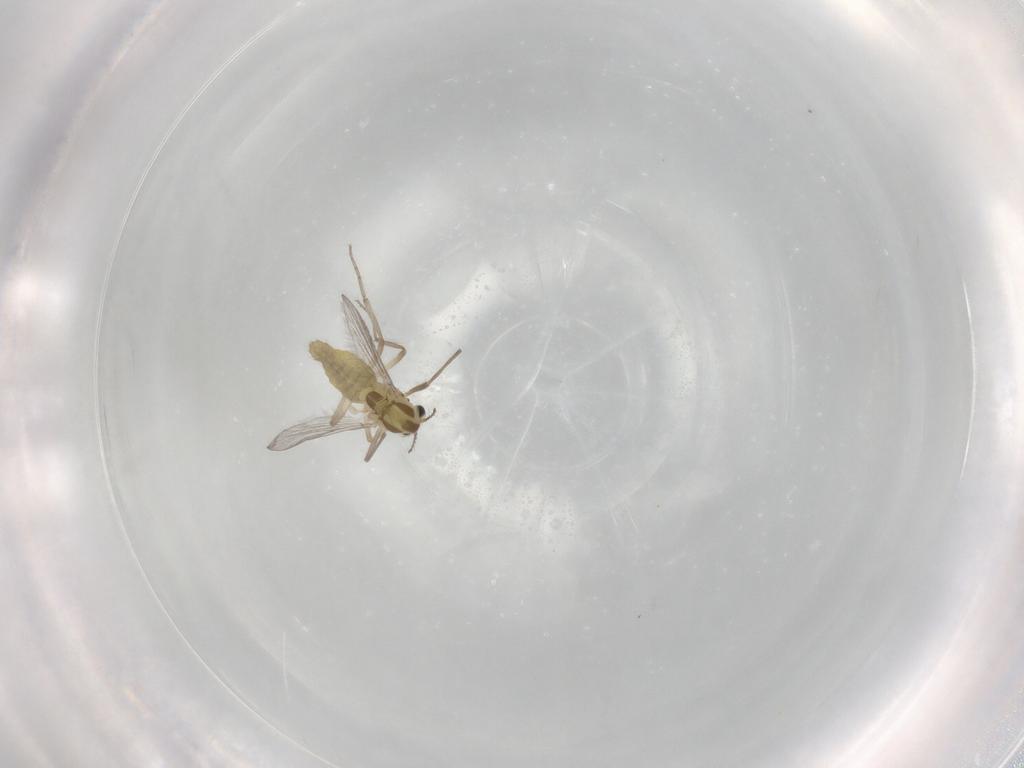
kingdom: Animalia
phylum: Arthropoda
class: Insecta
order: Diptera
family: Chironomidae
